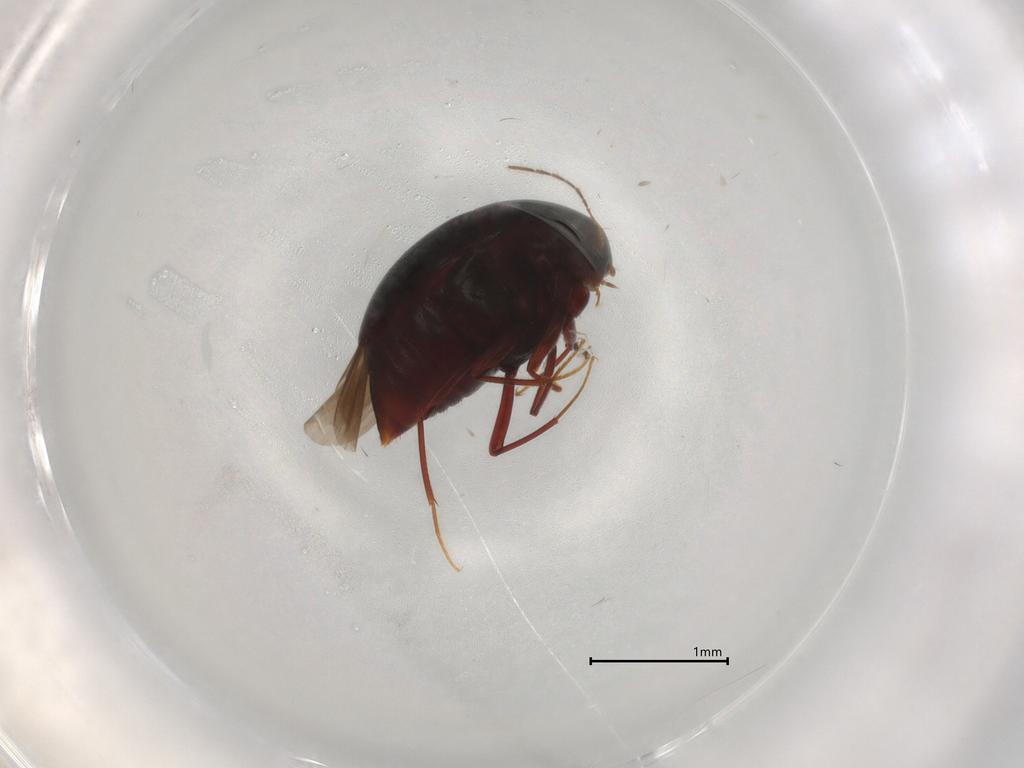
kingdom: Animalia
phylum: Arthropoda
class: Insecta
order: Coleoptera
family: Staphylinidae
